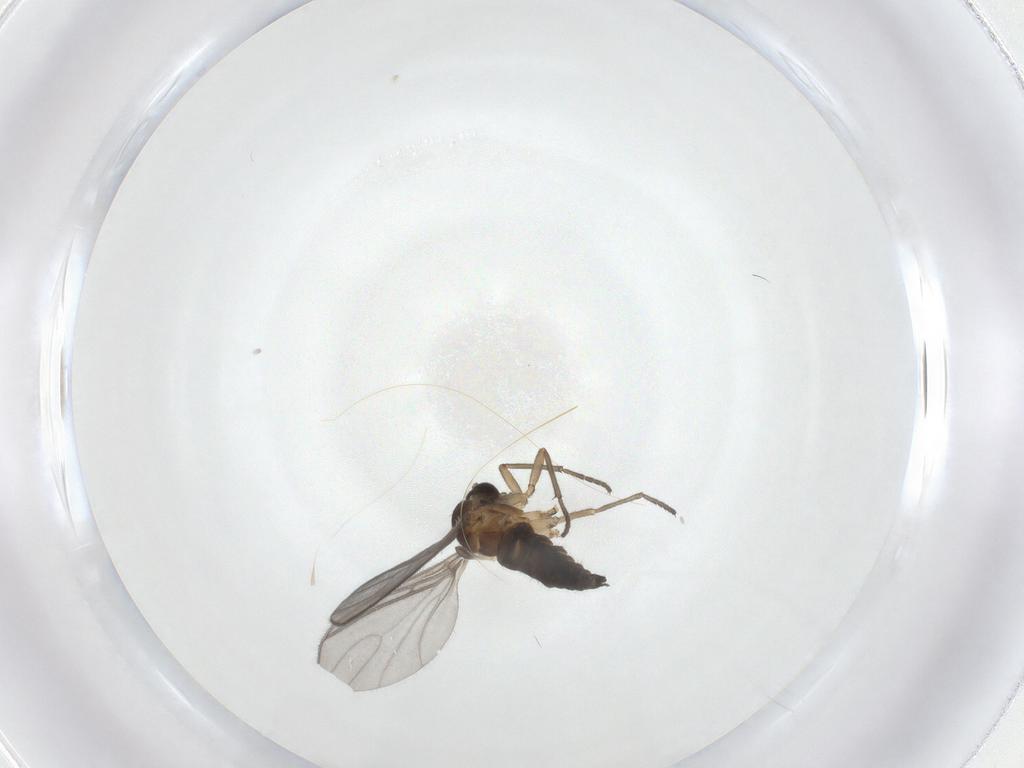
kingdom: Animalia
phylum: Arthropoda
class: Insecta
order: Diptera
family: Sciaridae
